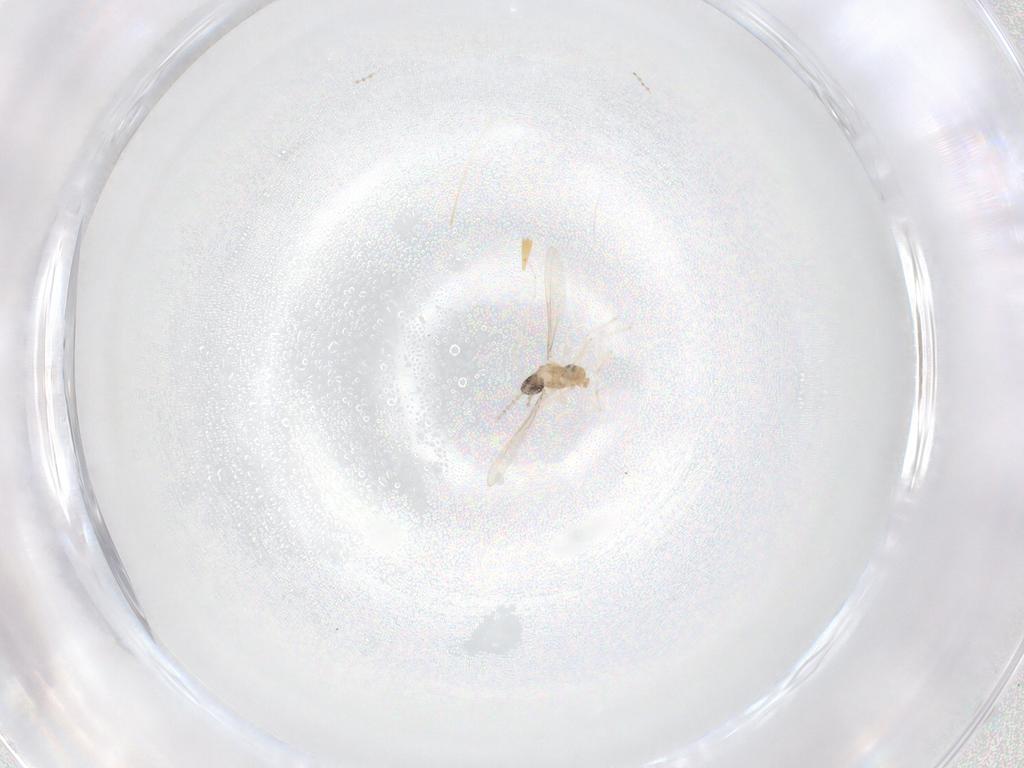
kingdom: Animalia
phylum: Arthropoda
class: Insecta
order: Diptera
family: Cecidomyiidae
